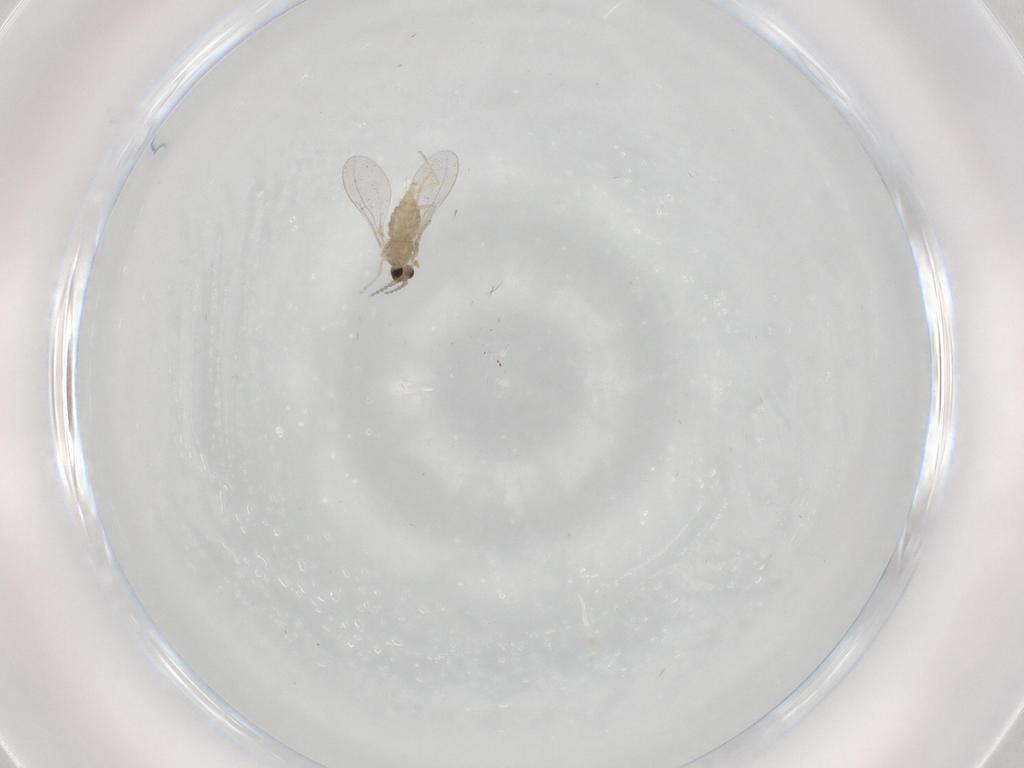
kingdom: Animalia
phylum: Arthropoda
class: Insecta
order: Diptera
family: Cecidomyiidae
